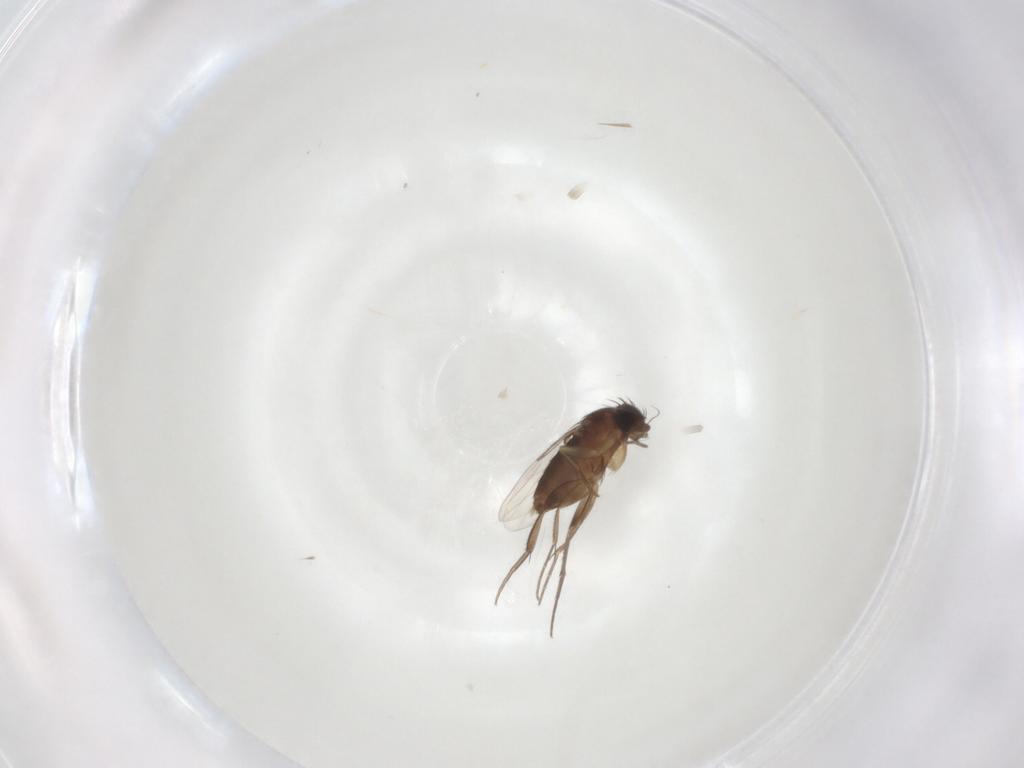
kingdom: Animalia
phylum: Arthropoda
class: Insecta
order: Diptera
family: Phoridae
